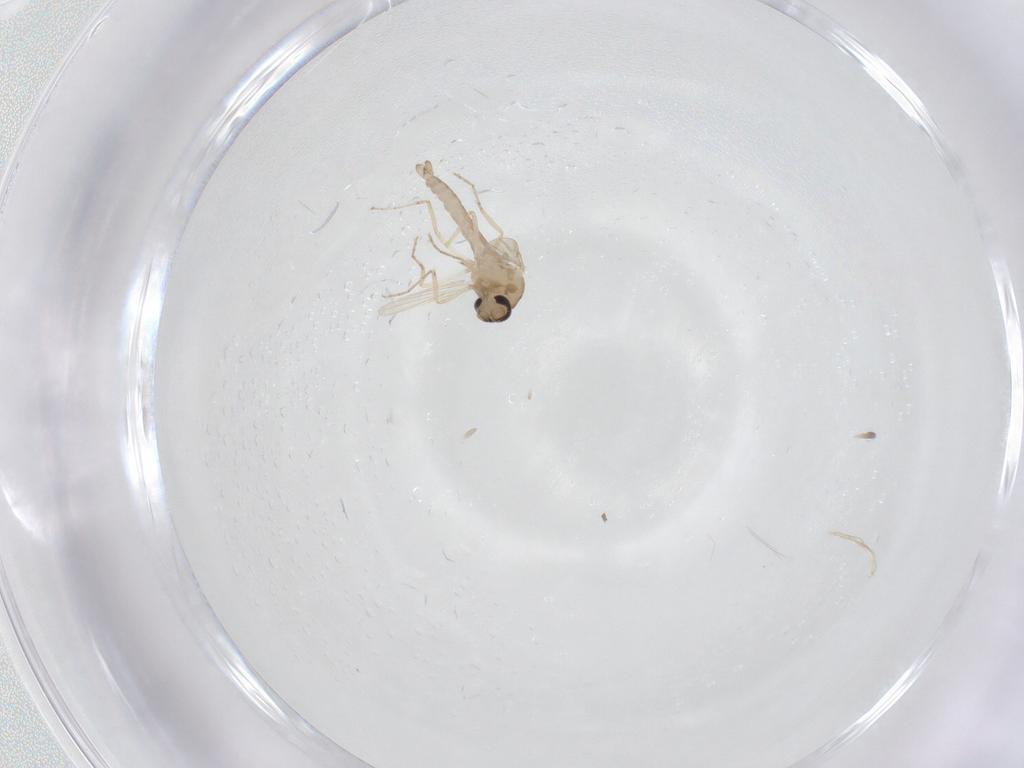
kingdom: Animalia
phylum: Arthropoda
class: Insecta
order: Diptera
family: Ceratopogonidae
